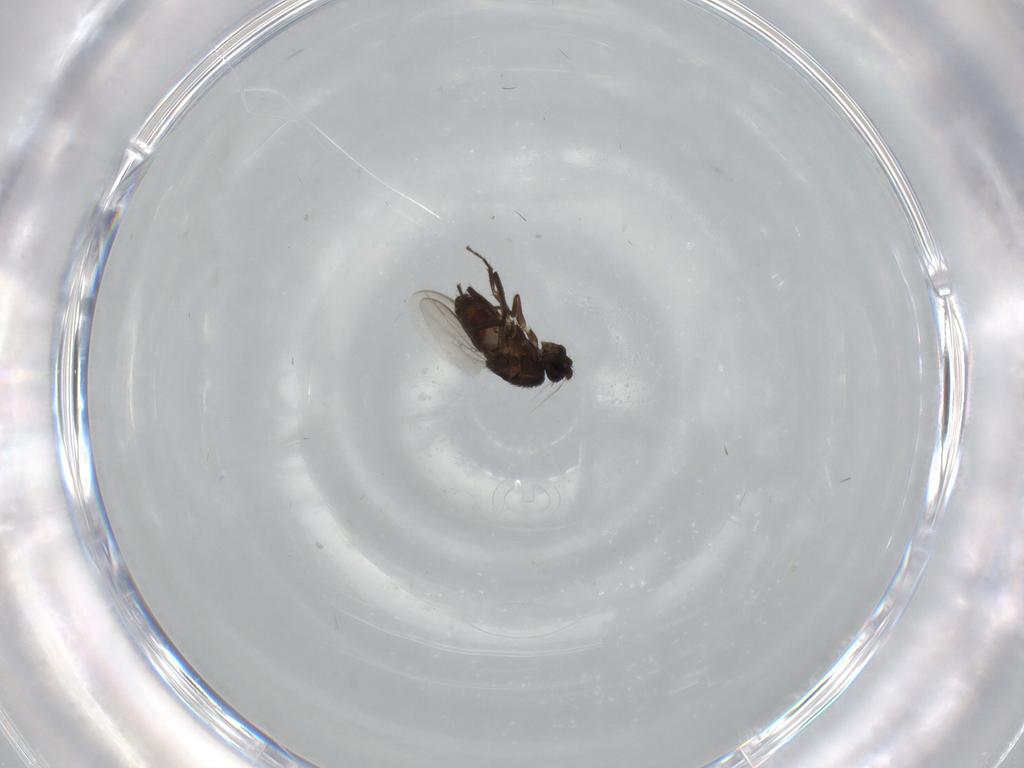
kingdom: Animalia
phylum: Arthropoda
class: Insecta
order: Diptera
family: Sphaeroceridae
